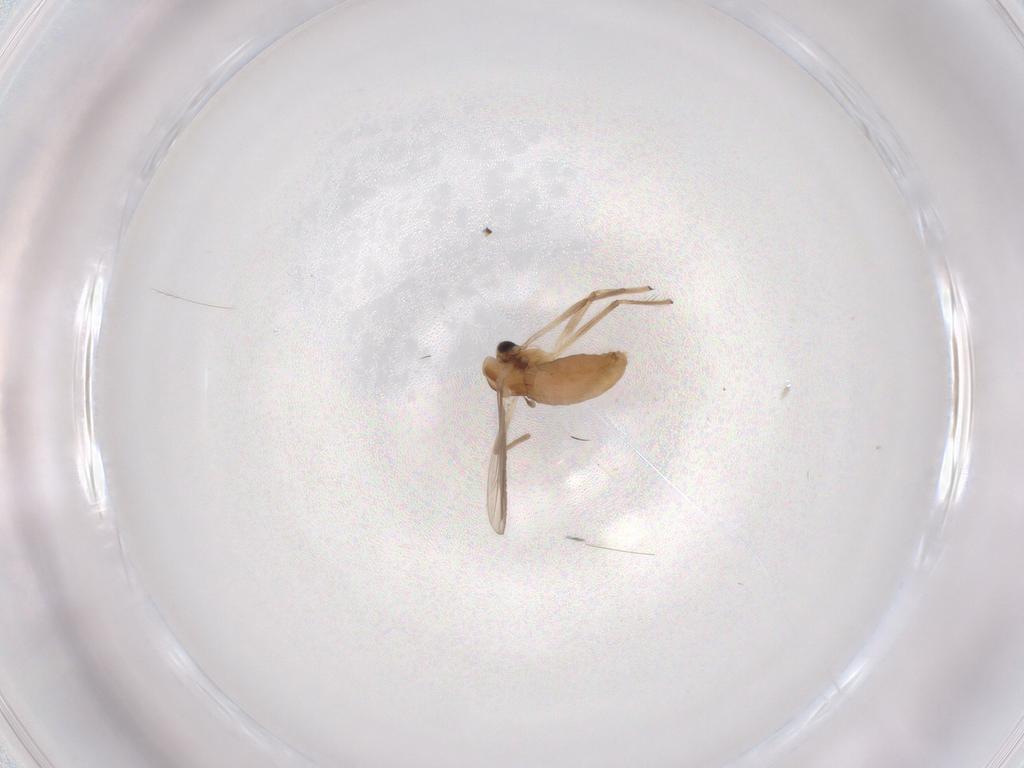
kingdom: Animalia
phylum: Arthropoda
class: Insecta
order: Diptera
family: Chironomidae
